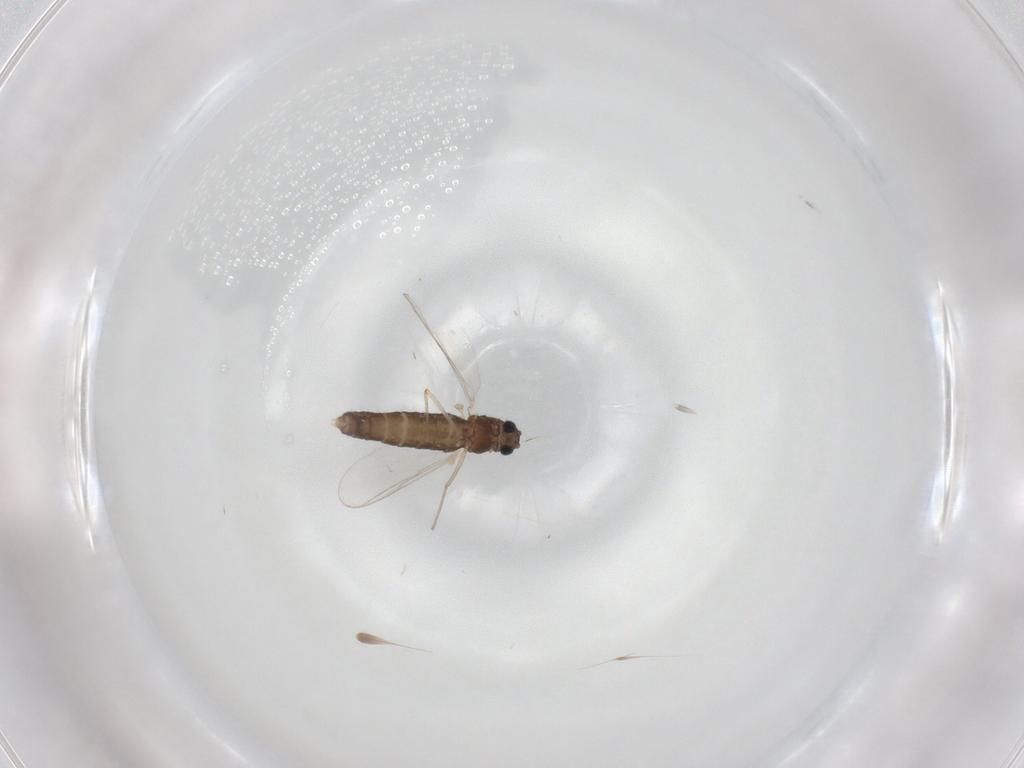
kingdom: Animalia
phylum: Arthropoda
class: Insecta
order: Diptera
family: Chironomidae
